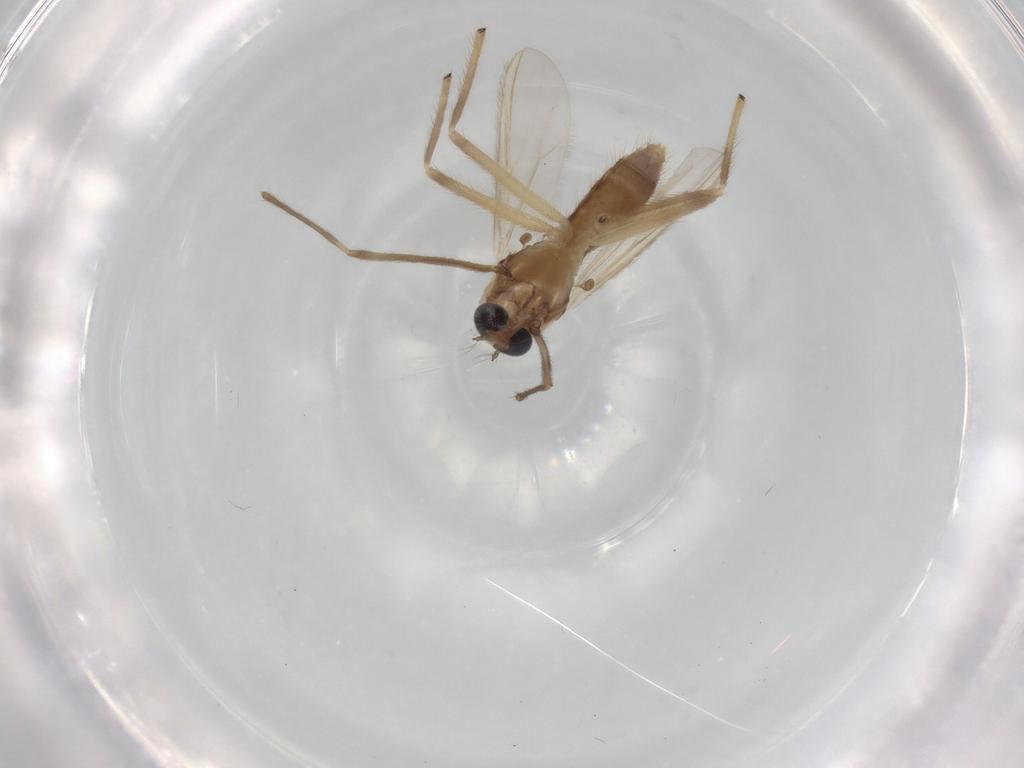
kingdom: Animalia
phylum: Arthropoda
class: Insecta
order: Diptera
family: Chironomidae
